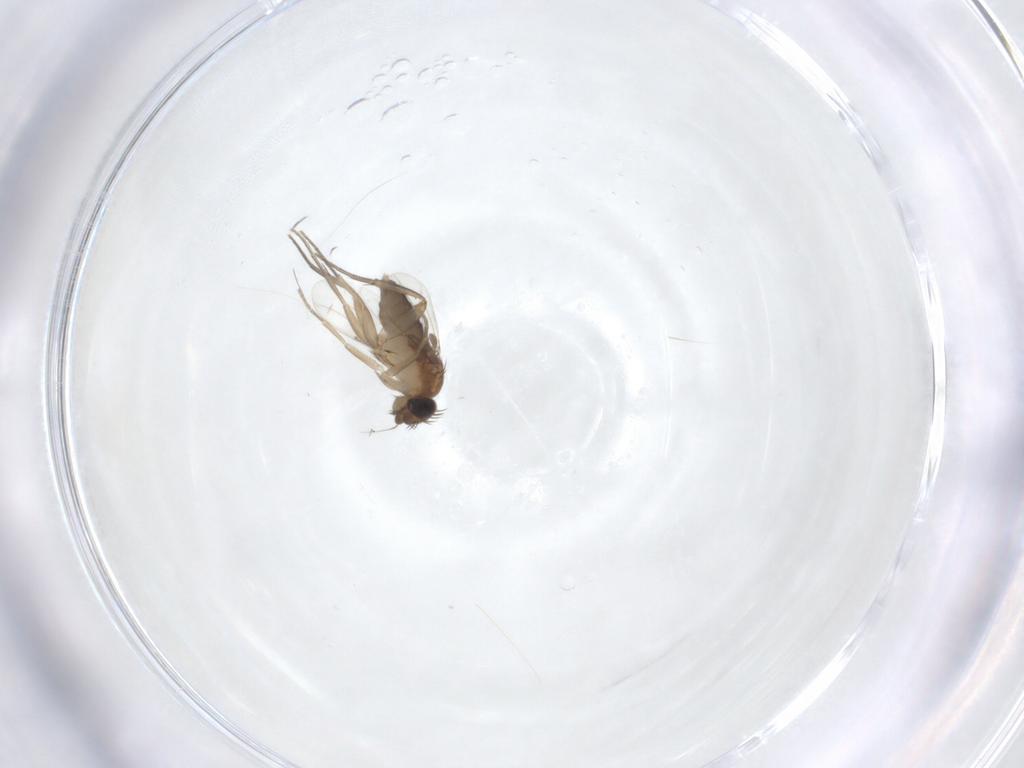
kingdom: Animalia
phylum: Arthropoda
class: Insecta
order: Diptera
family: Phoridae
